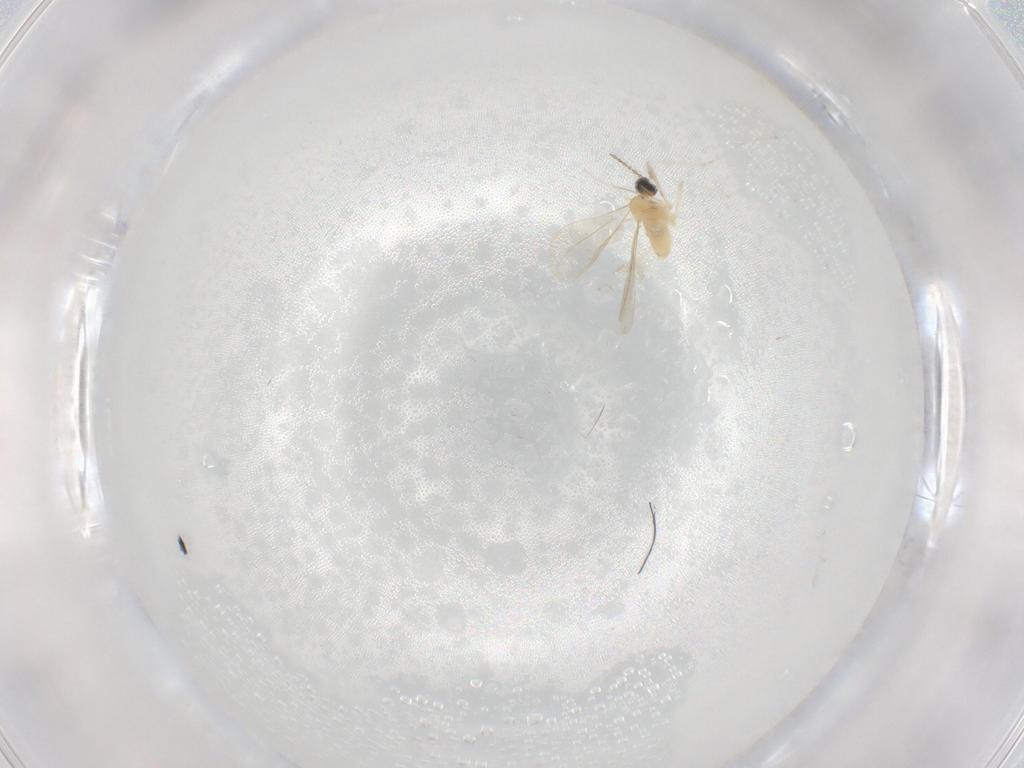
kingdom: Animalia
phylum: Arthropoda
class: Insecta
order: Diptera
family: Cecidomyiidae
